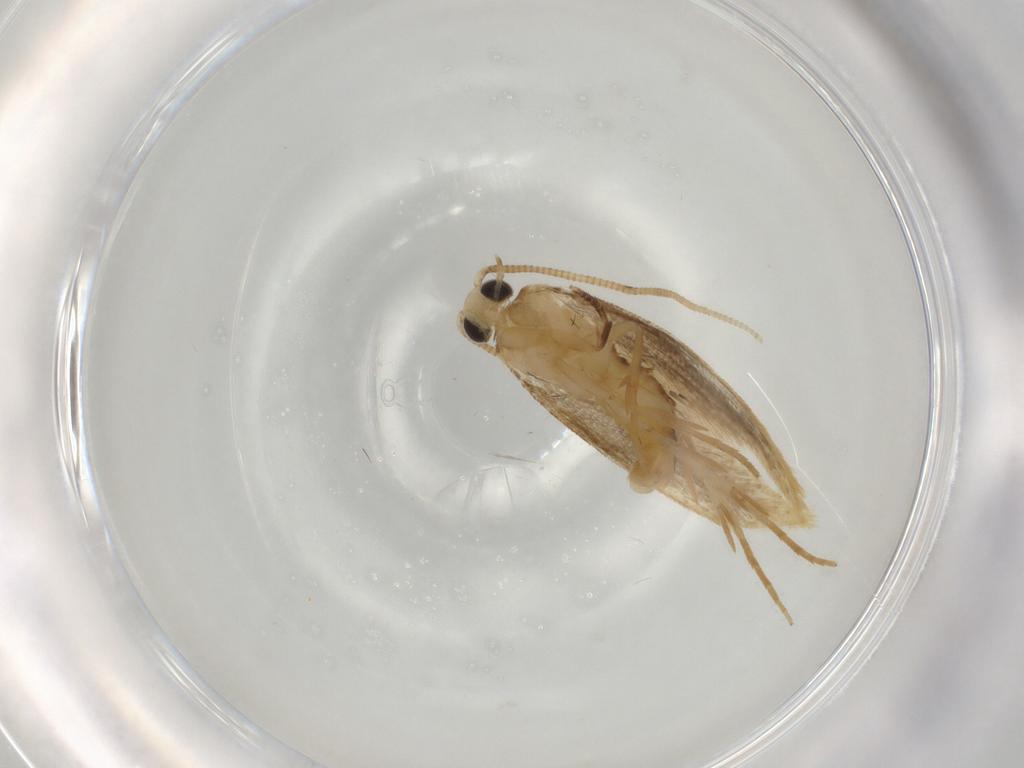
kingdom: Animalia
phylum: Arthropoda
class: Insecta
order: Lepidoptera
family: Tineidae
